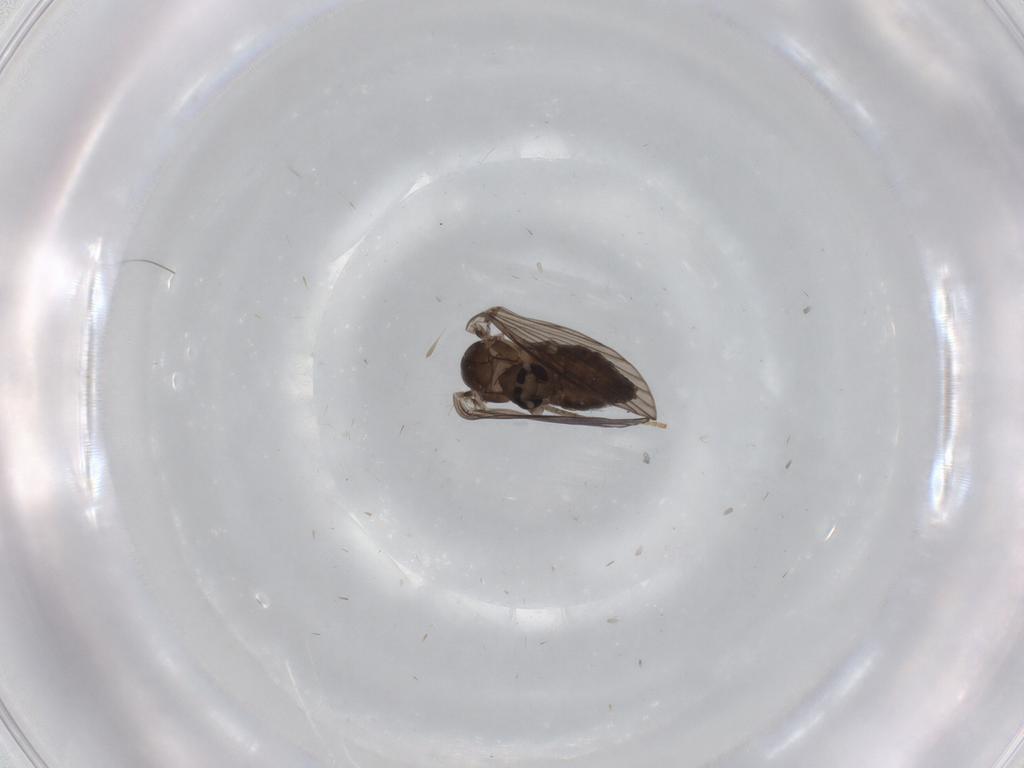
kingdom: Animalia
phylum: Arthropoda
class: Insecta
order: Diptera
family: Psychodidae
